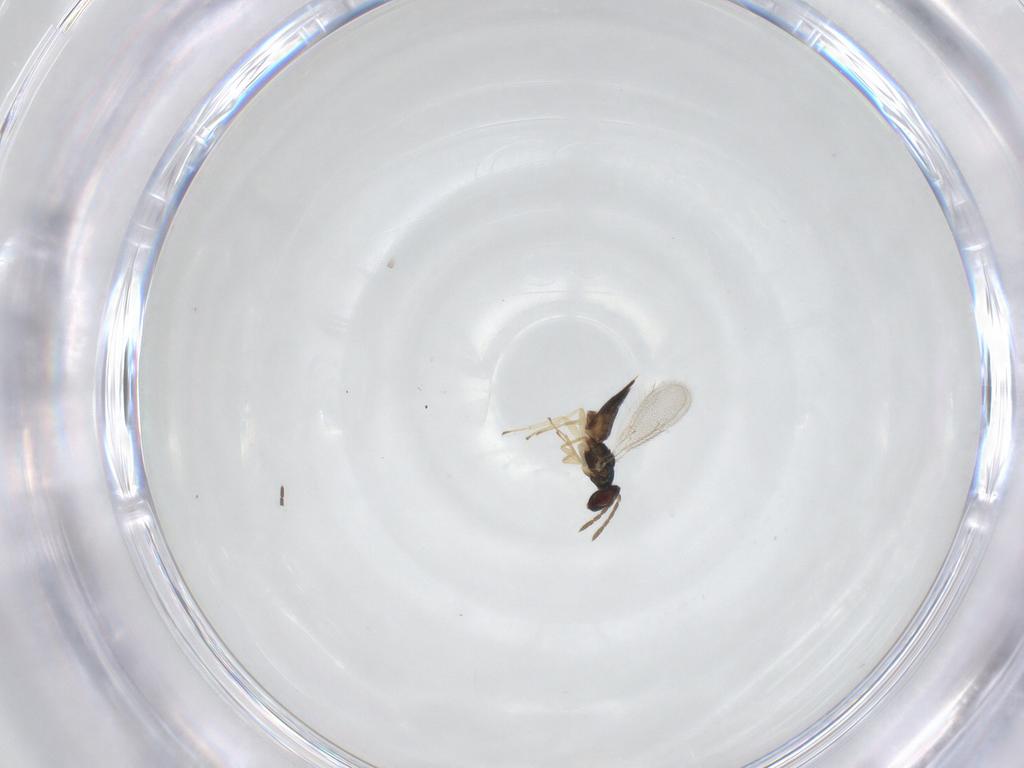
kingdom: Animalia
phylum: Arthropoda
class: Insecta
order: Hymenoptera
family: Eulophidae
